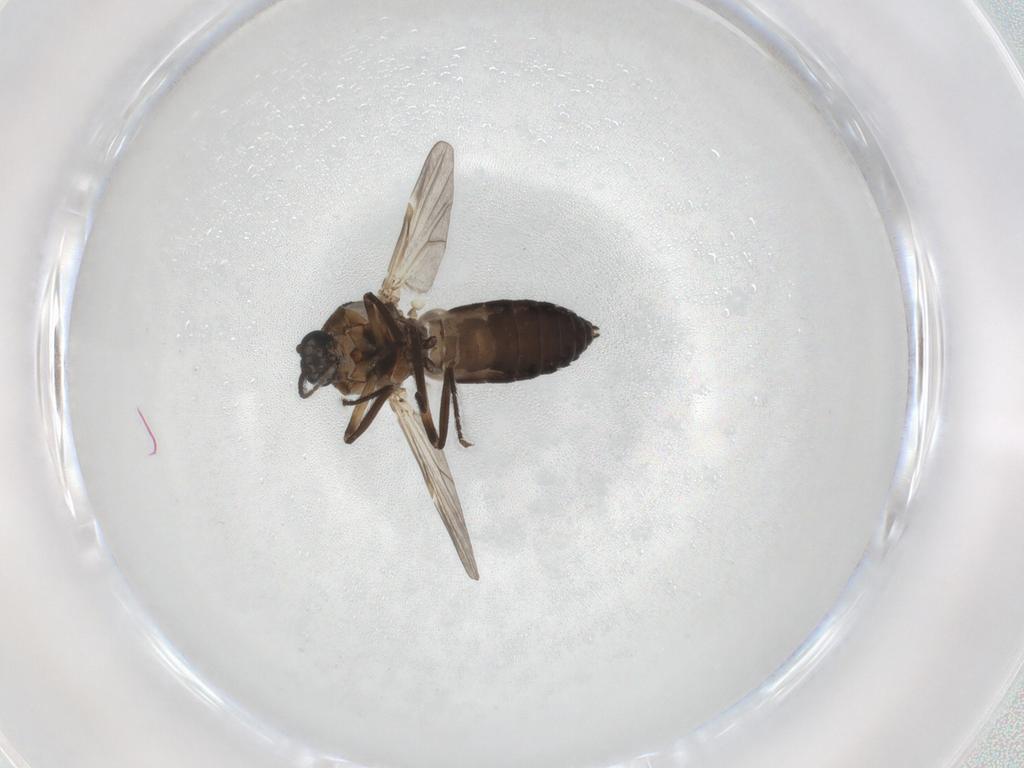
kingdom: Animalia
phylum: Arthropoda
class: Insecta
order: Diptera
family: Ceratopogonidae
